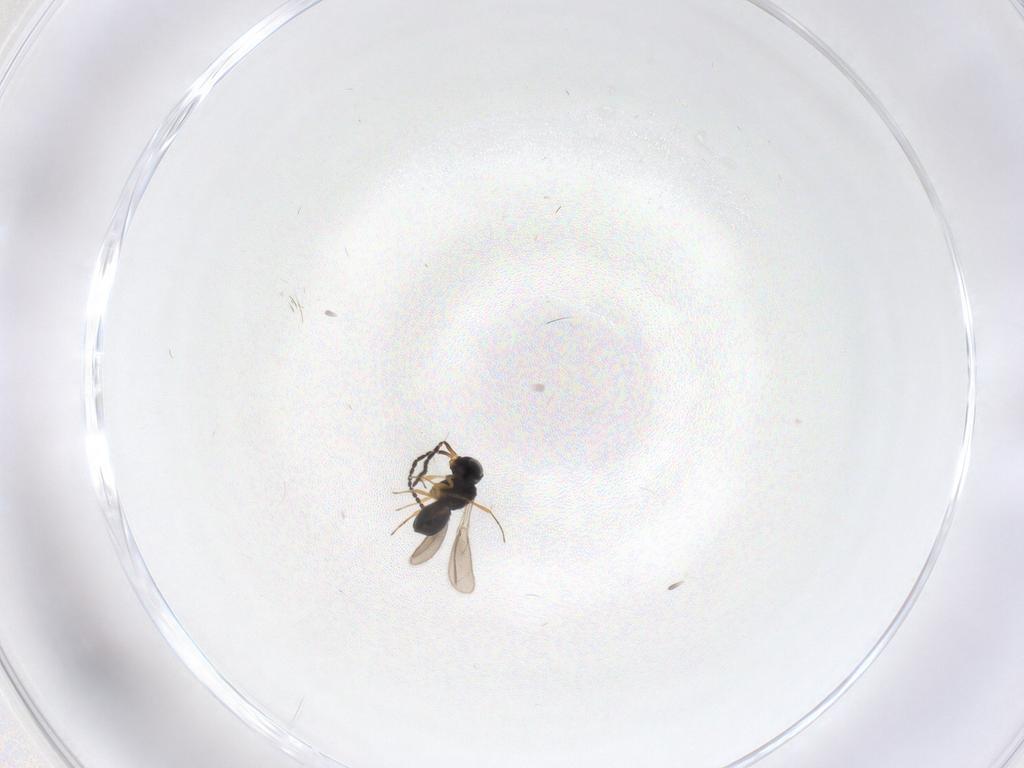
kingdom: Animalia
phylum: Arthropoda
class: Insecta
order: Hymenoptera
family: Scelionidae
